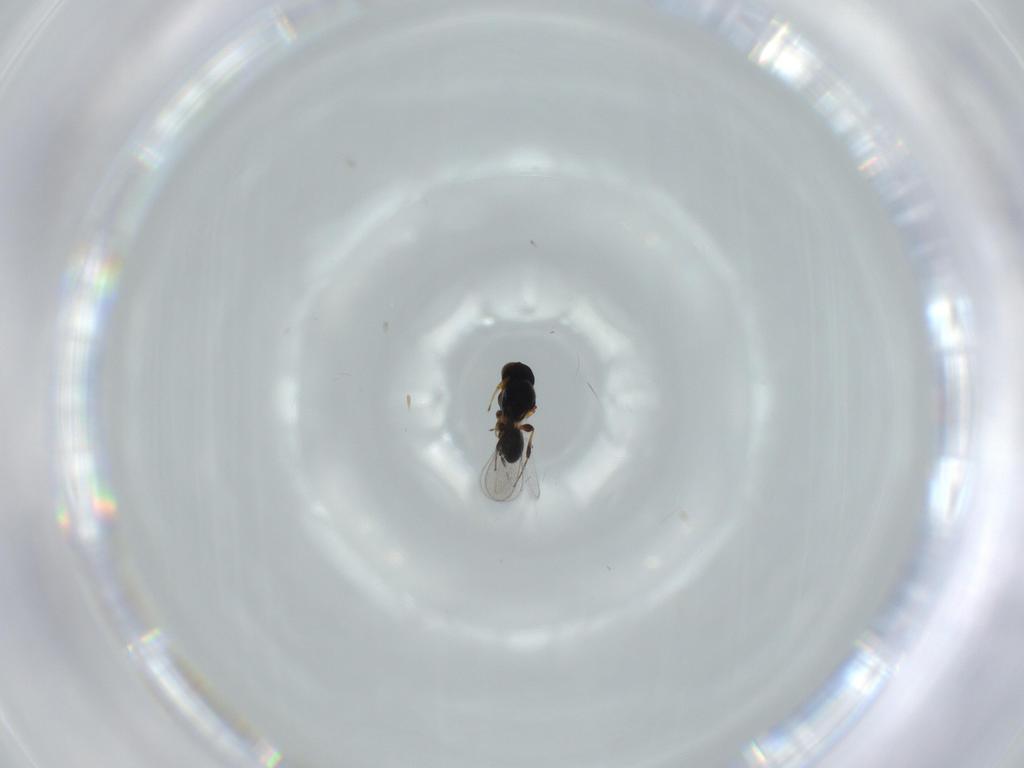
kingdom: Animalia
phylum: Arthropoda
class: Insecta
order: Hymenoptera
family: Platygastridae
